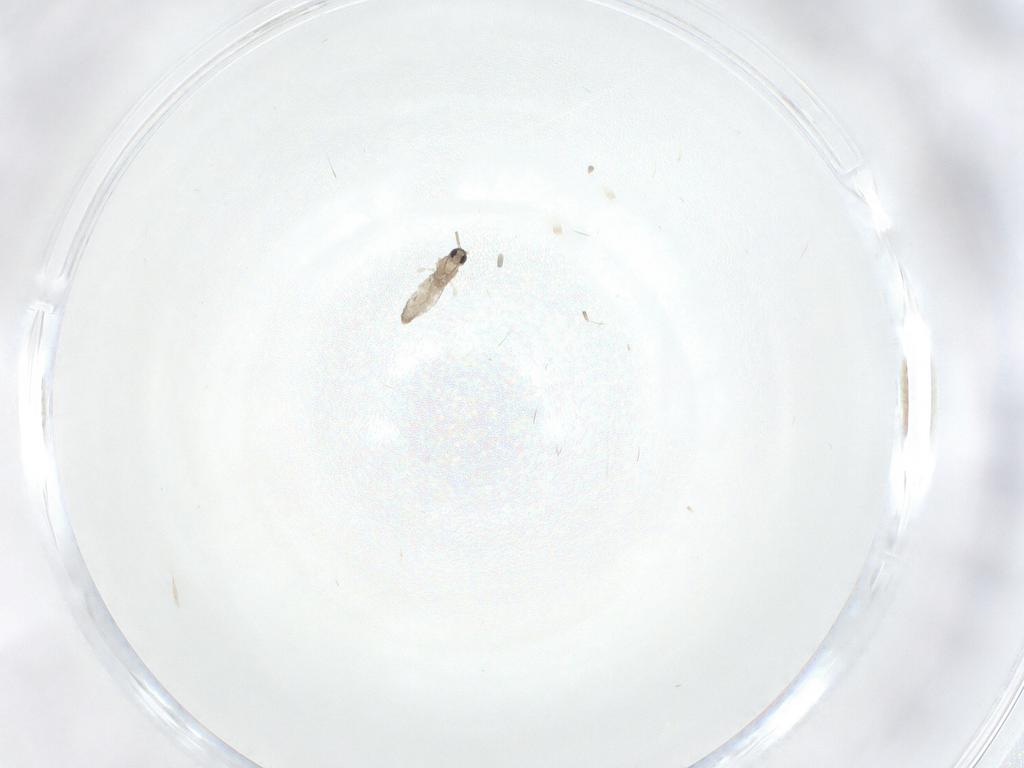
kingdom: Animalia
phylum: Arthropoda
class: Insecta
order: Diptera
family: Cecidomyiidae
